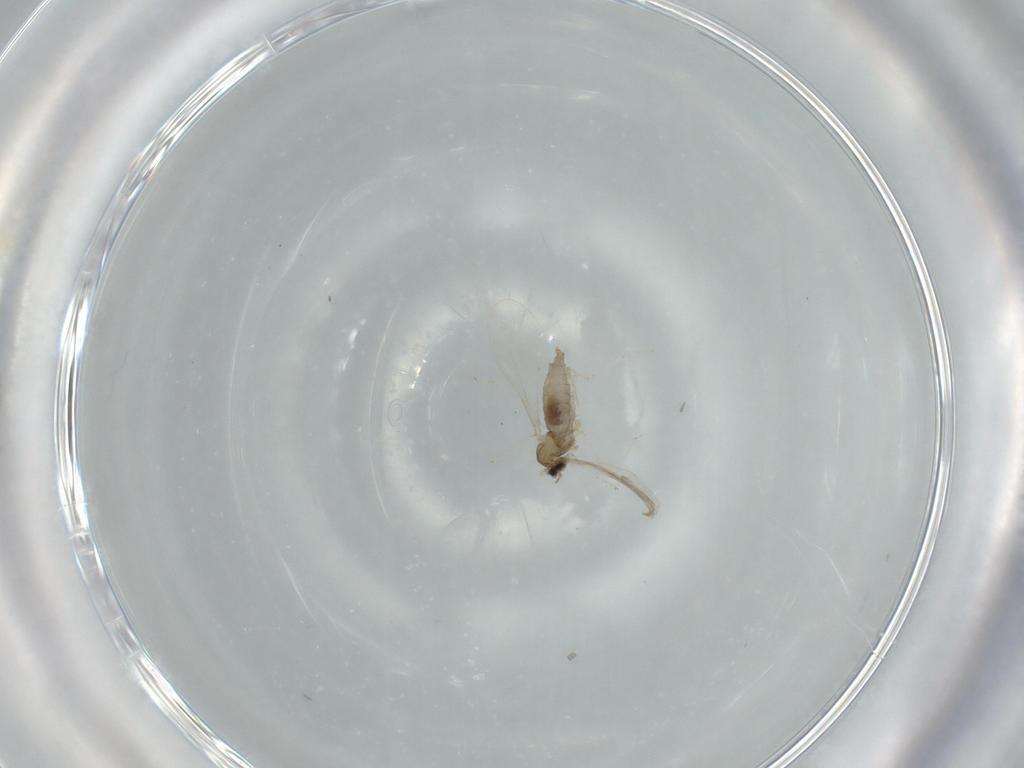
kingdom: Animalia
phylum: Arthropoda
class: Insecta
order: Diptera
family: Cecidomyiidae
